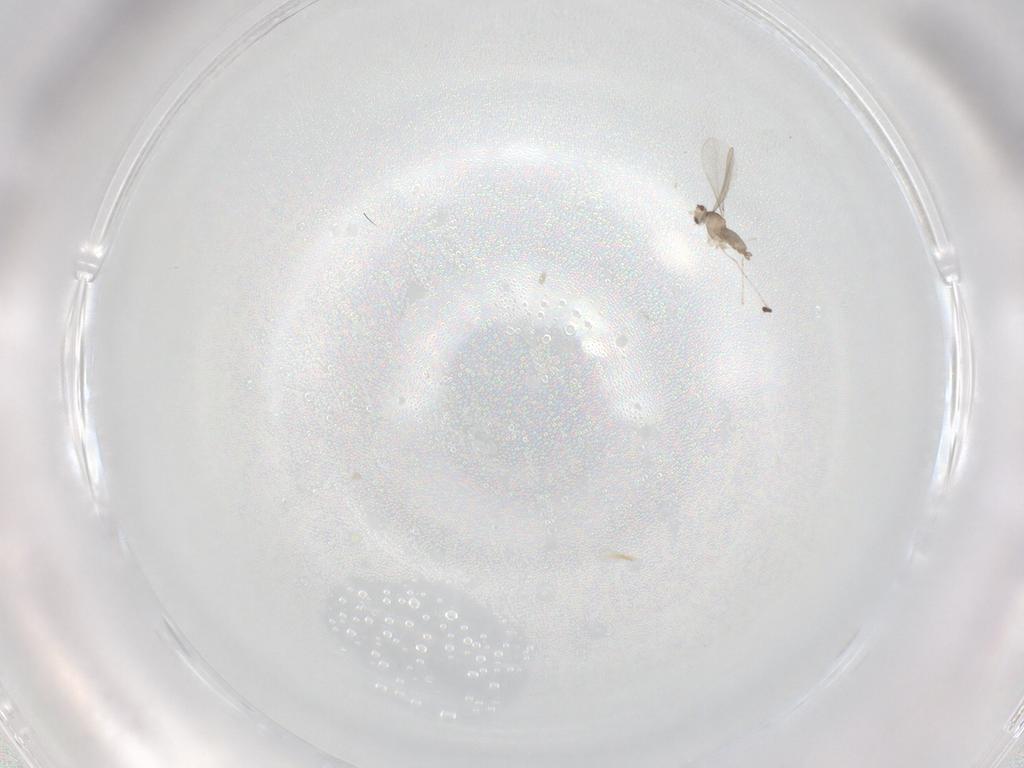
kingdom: Animalia
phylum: Arthropoda
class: Insecta
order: Diptera
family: Cecidomyiidae
